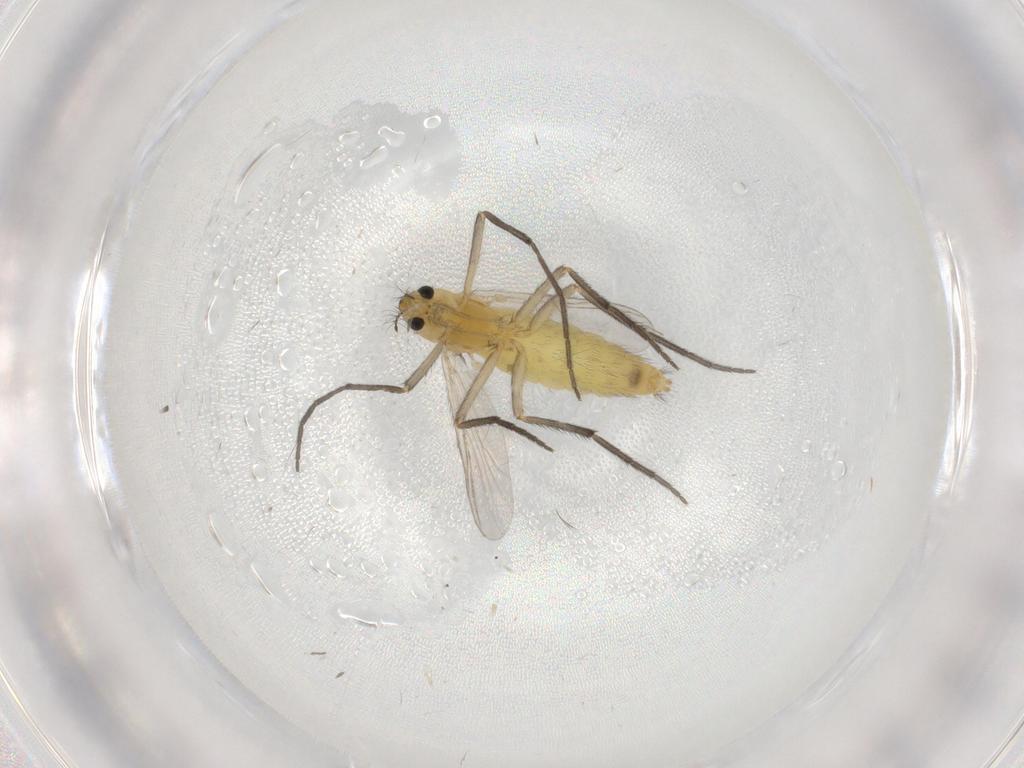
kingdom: Animalia
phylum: Arthropoda
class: Insecta
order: Diptera
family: Chironomidae
